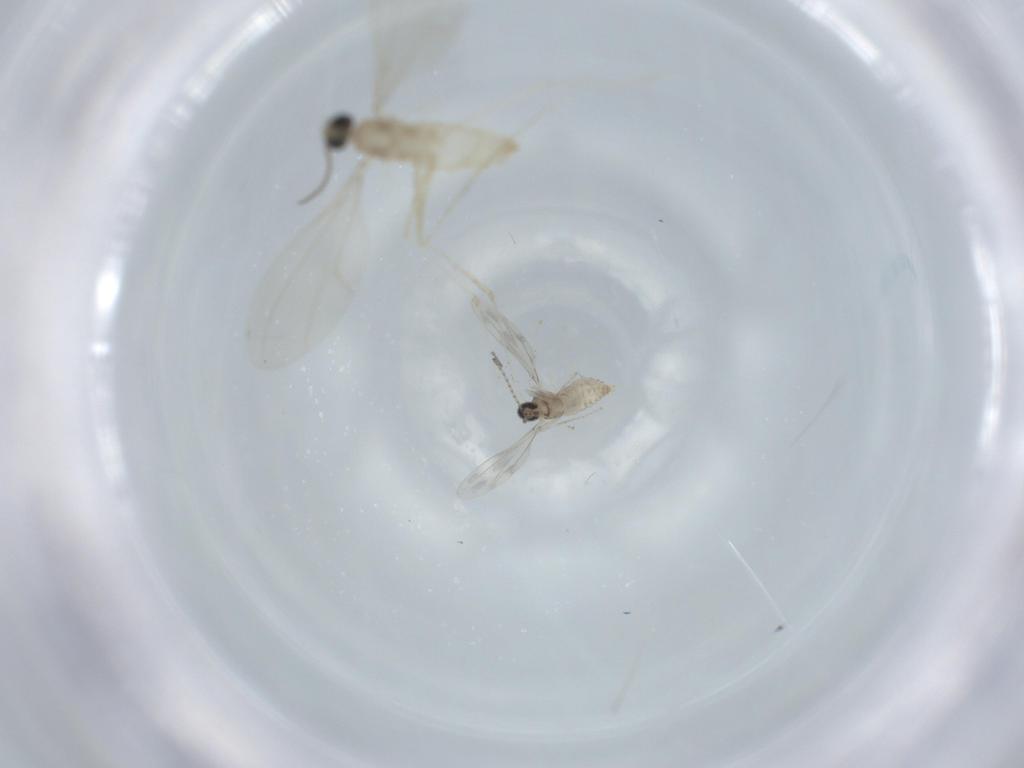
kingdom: Animalia
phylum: Arthropoda
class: Insecta
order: Diptera
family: Cecidomyiidae
